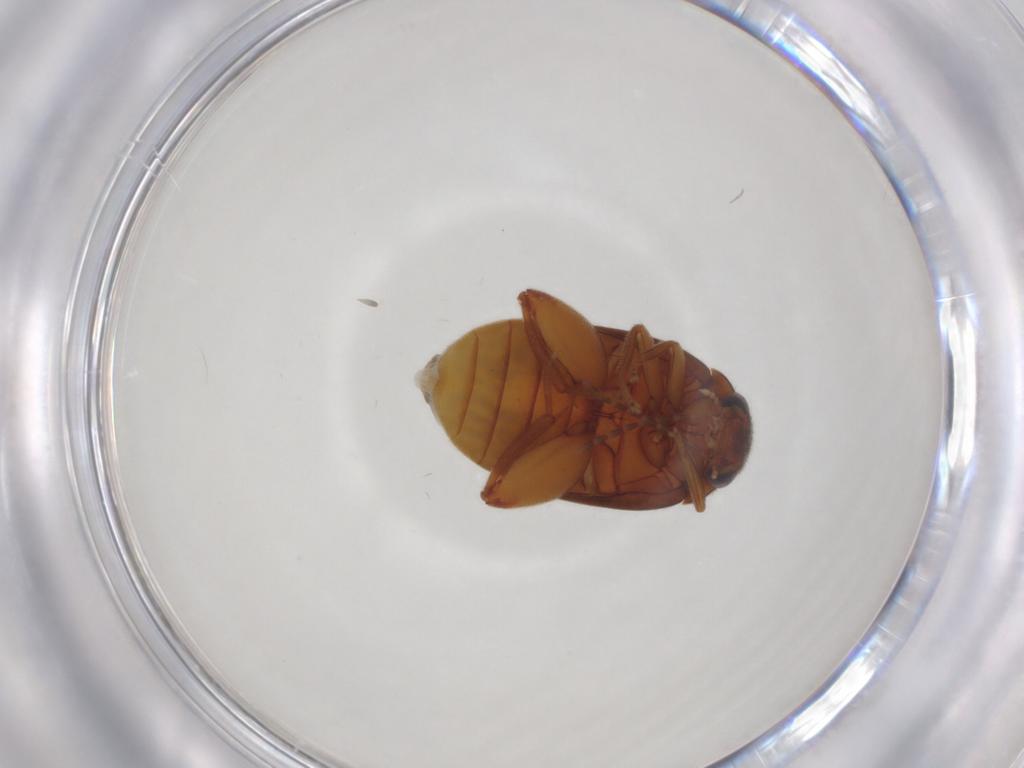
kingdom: Animalia
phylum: Arthropoda
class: Insecta
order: Coleoptera
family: Scirtidae
